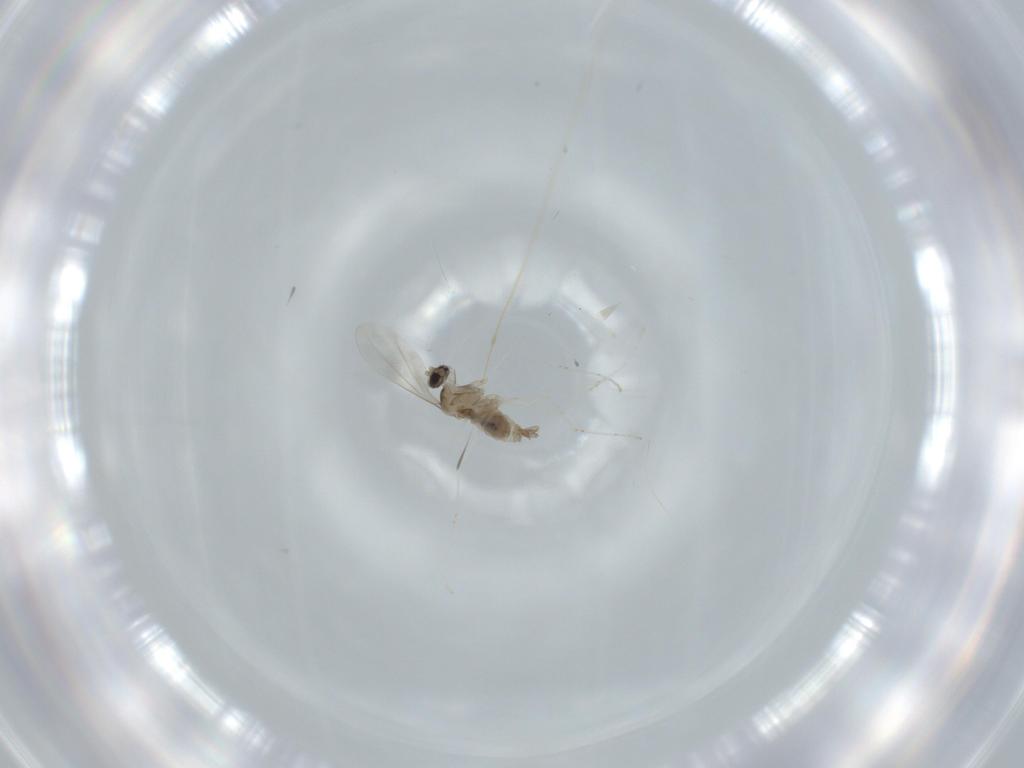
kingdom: Animalia
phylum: Arthropoda
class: Insecta
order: Diptera
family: Cecidomyiidae
